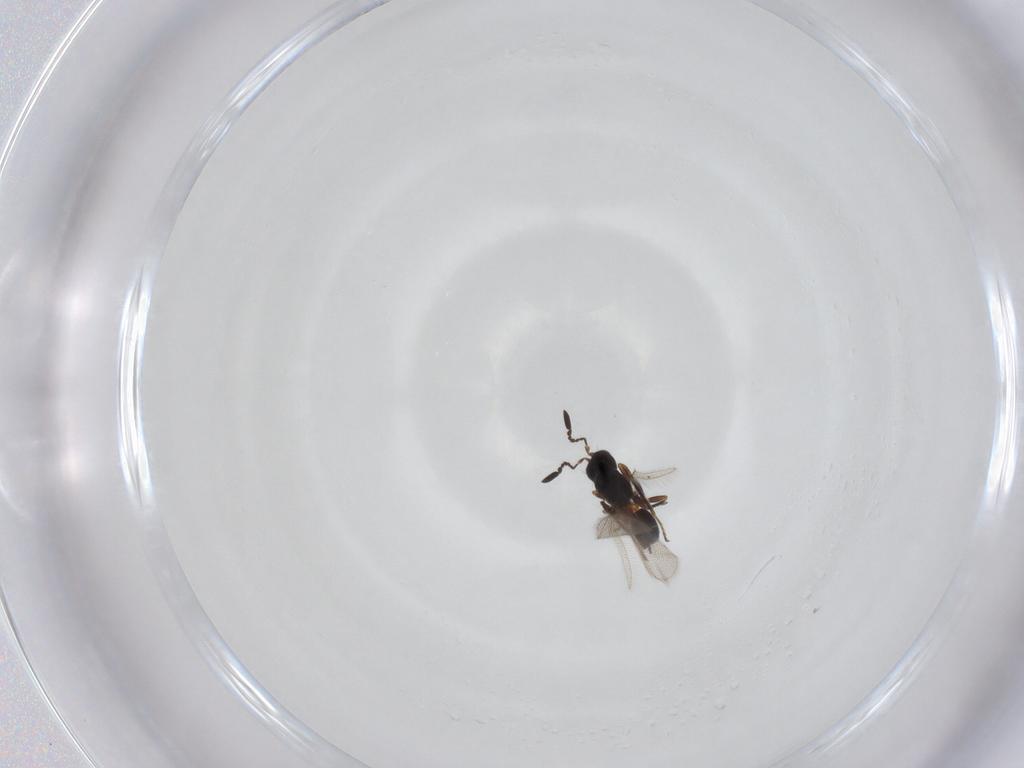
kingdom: Animalia
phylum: Arthropoda
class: Insecta
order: Hymenoptera
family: Mymaridae
